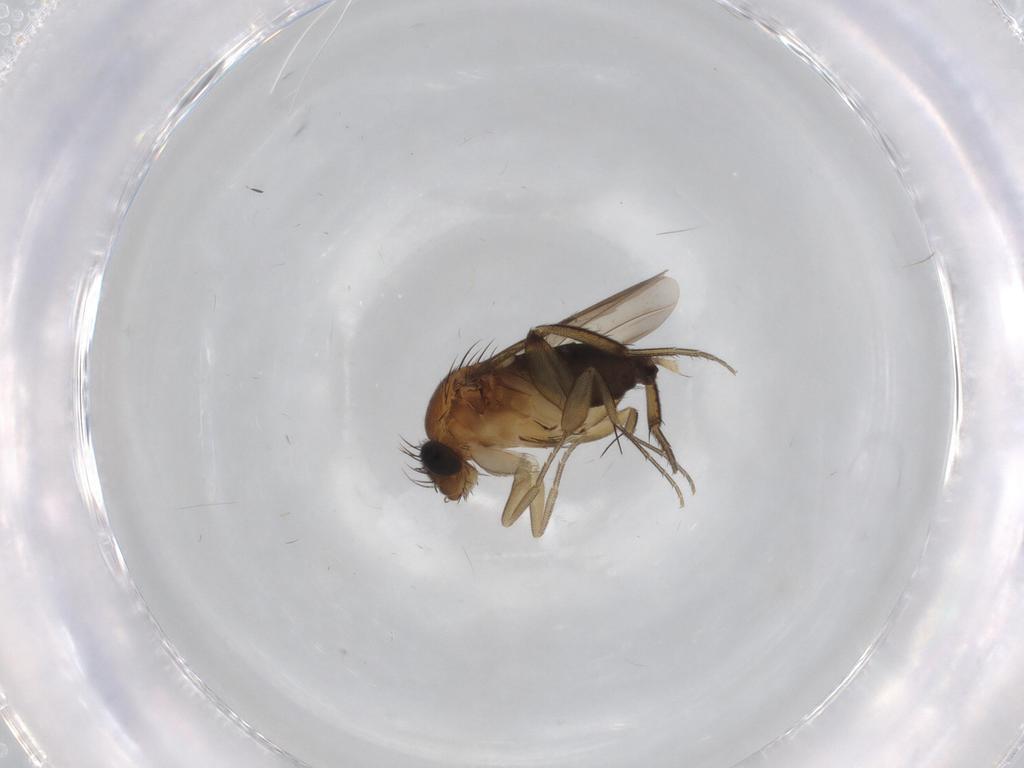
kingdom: Animalia
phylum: Arthropoda
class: Insecta
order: Diptera
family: Phoridae
